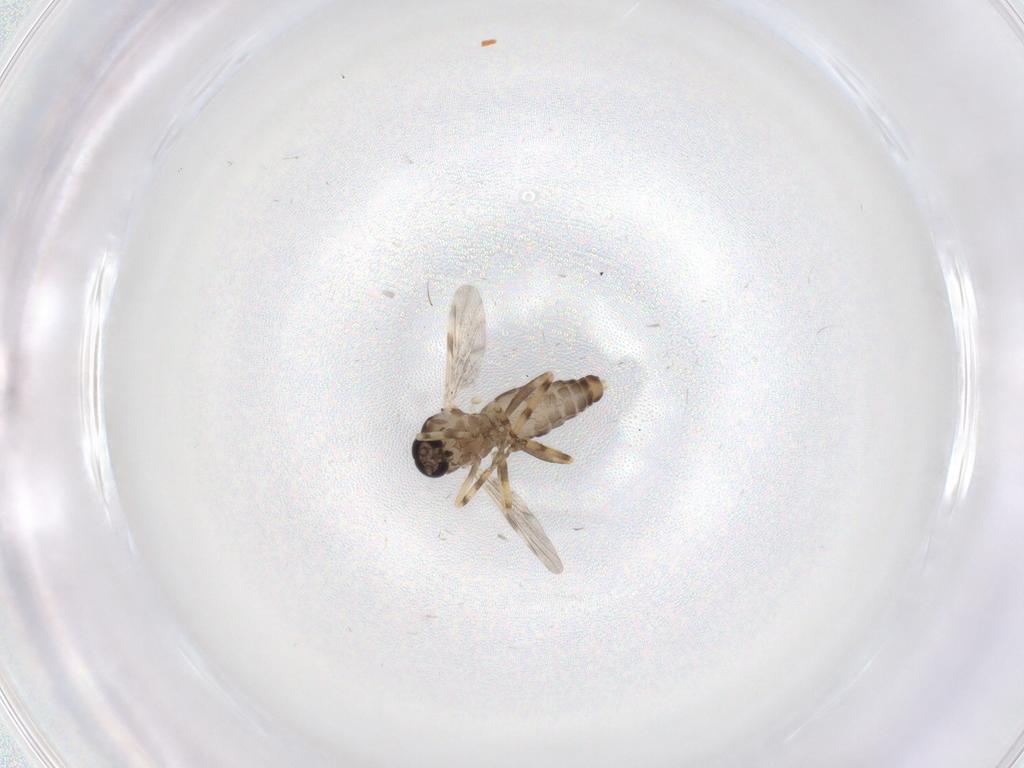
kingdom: Animalia
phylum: Arthropoda
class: Insecta
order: Diptera
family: Ceratopogonidae
